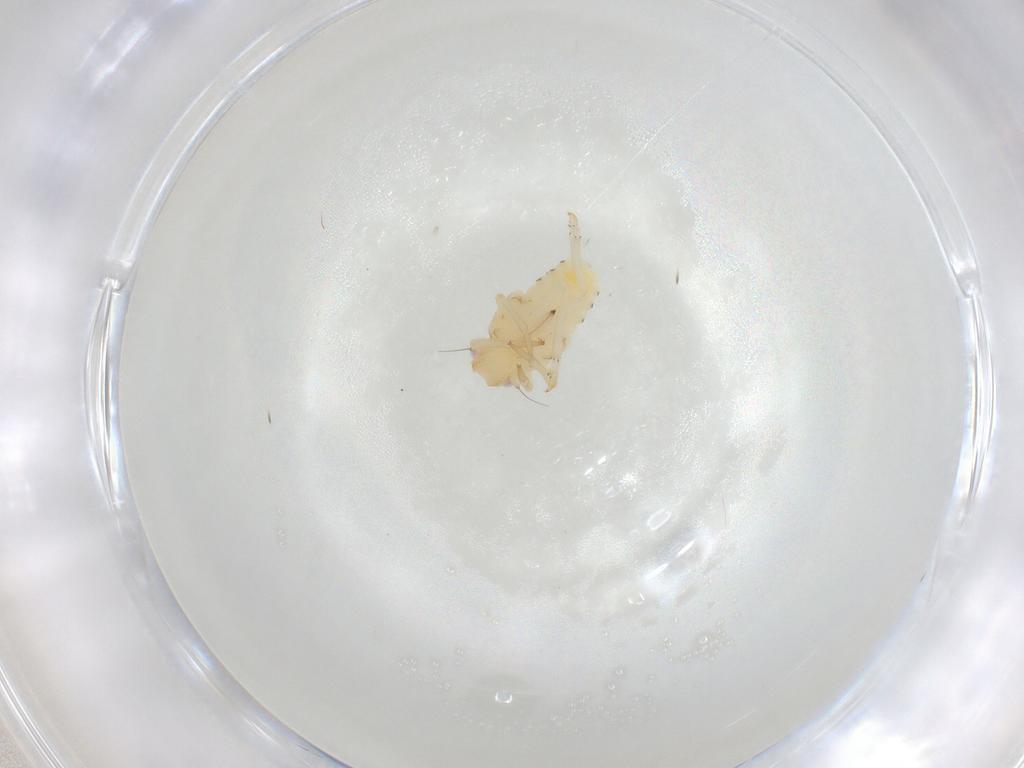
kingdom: Animalia
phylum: Arthropoda
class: Insecta
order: Hemiptera
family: Tropiduchidae
